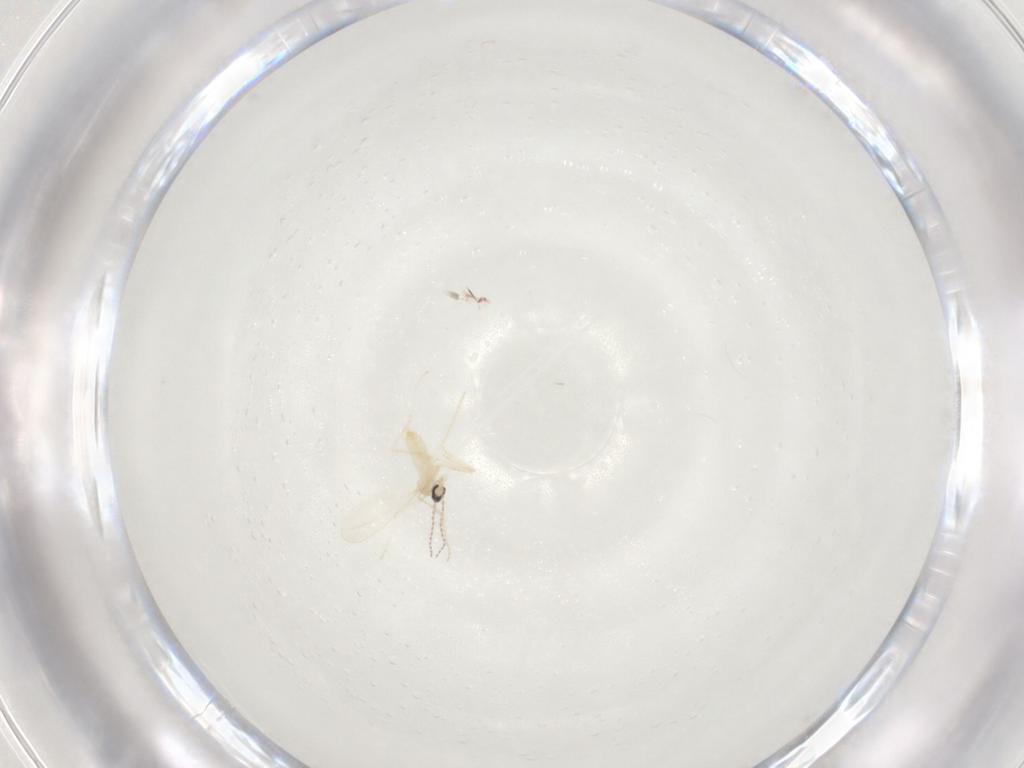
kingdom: Animalia
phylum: Arthropoda
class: Insecta
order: Diptera
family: Cecidomyiidae
